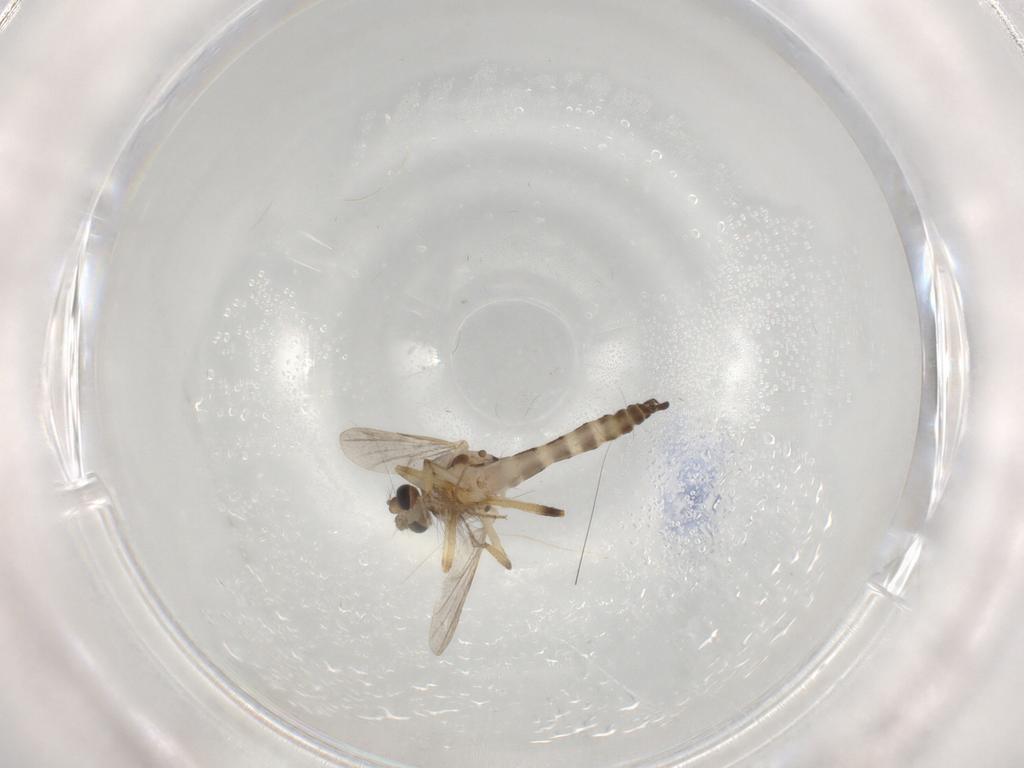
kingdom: Animalia
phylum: Arthropoda
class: Insecta
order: Diptera
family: Ceratopogonidae
